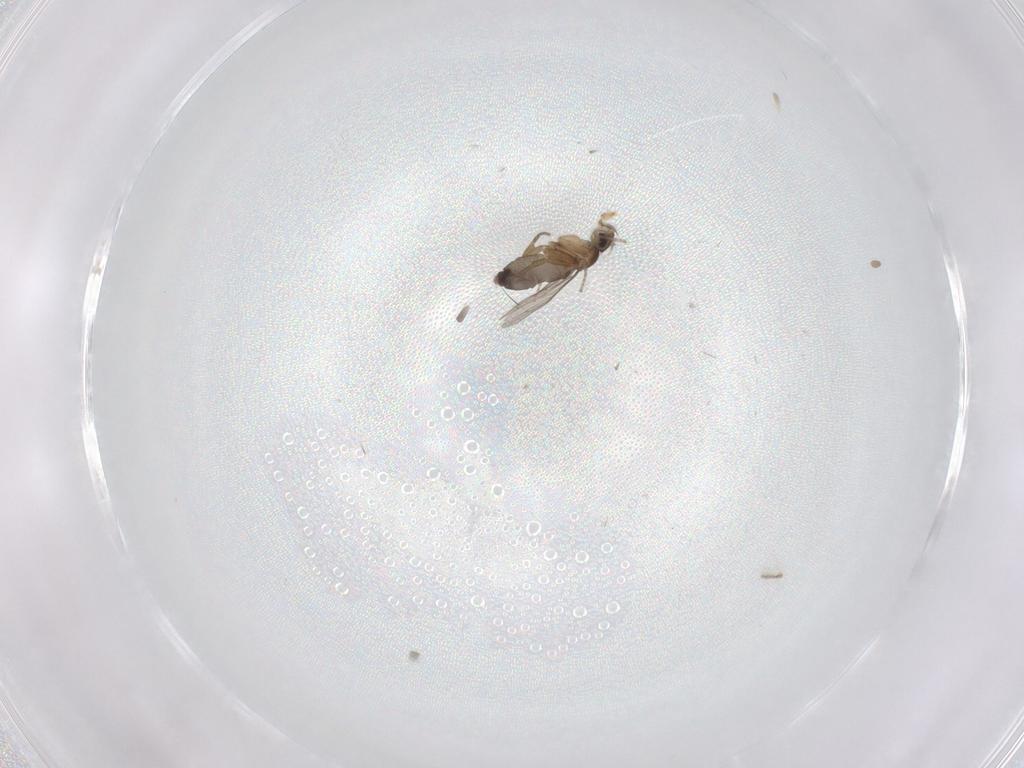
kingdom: Animalia
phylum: Arthropoda
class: Insecta
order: Diptera
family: Phoridae
